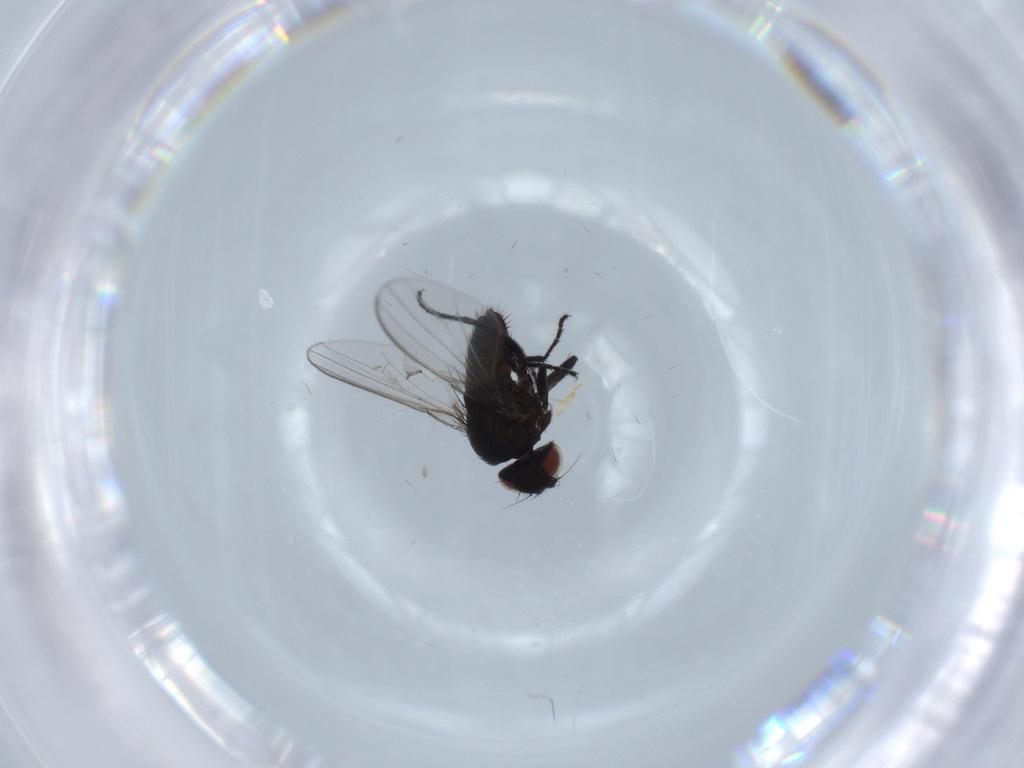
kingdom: Animalia
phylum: Arthropoda
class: Insecta
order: Diptera
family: Milichiidae
